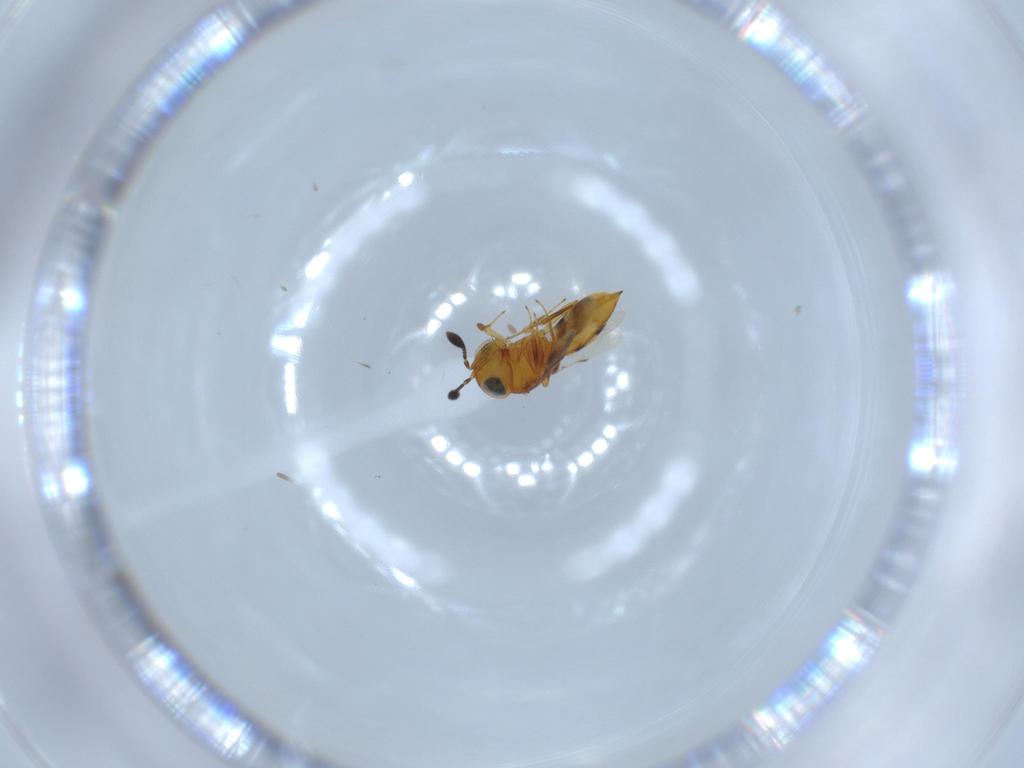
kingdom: Animalia
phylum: Arthropoda
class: Insecta
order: Hymenoptera
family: Scelionidae
